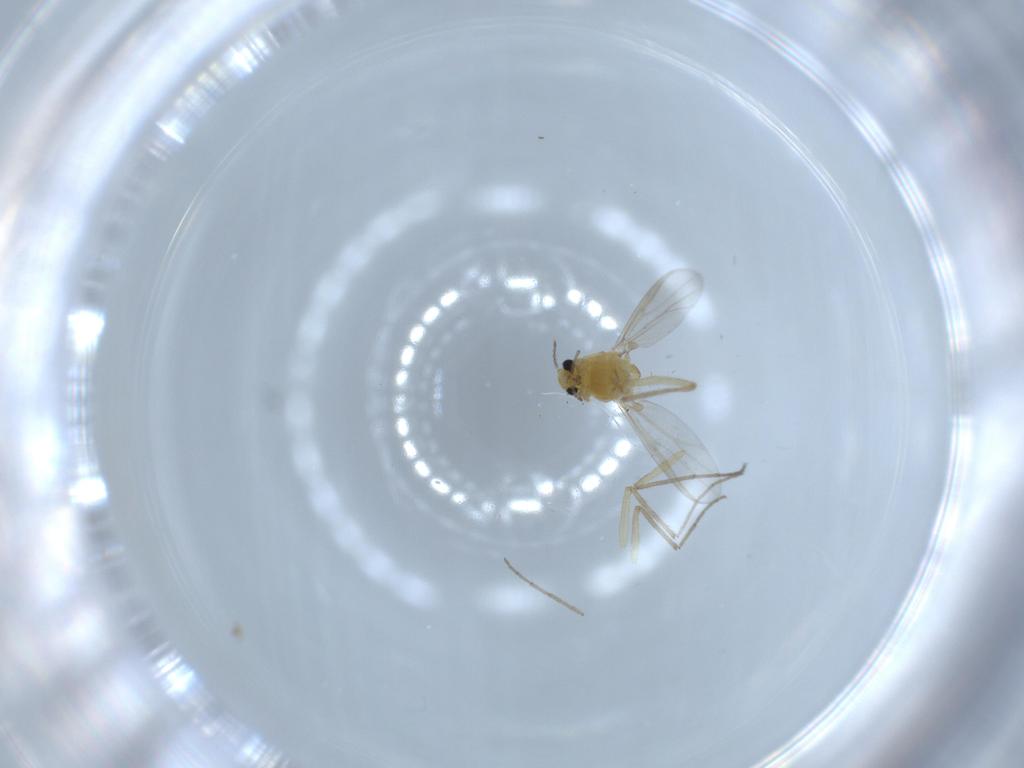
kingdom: Animalia
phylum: Arthropoda
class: Insecta
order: Diptera
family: Chironomidae
